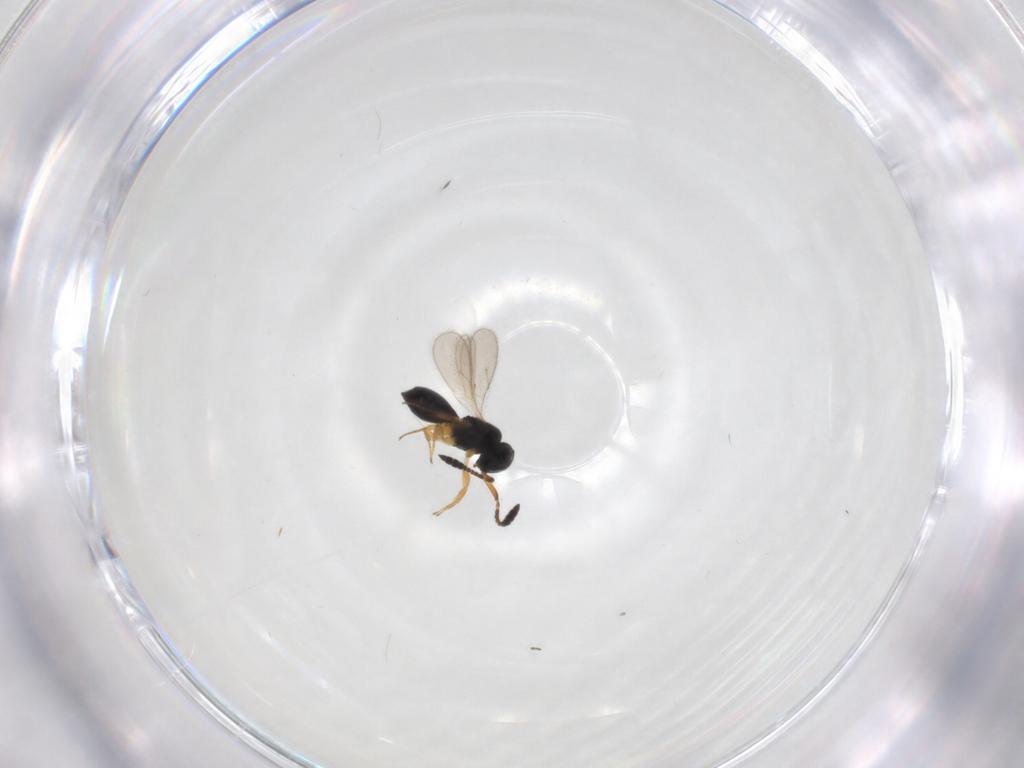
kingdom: Animalia
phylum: Arthropoda
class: Insecta
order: Hymenoptera
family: Scelionidae
